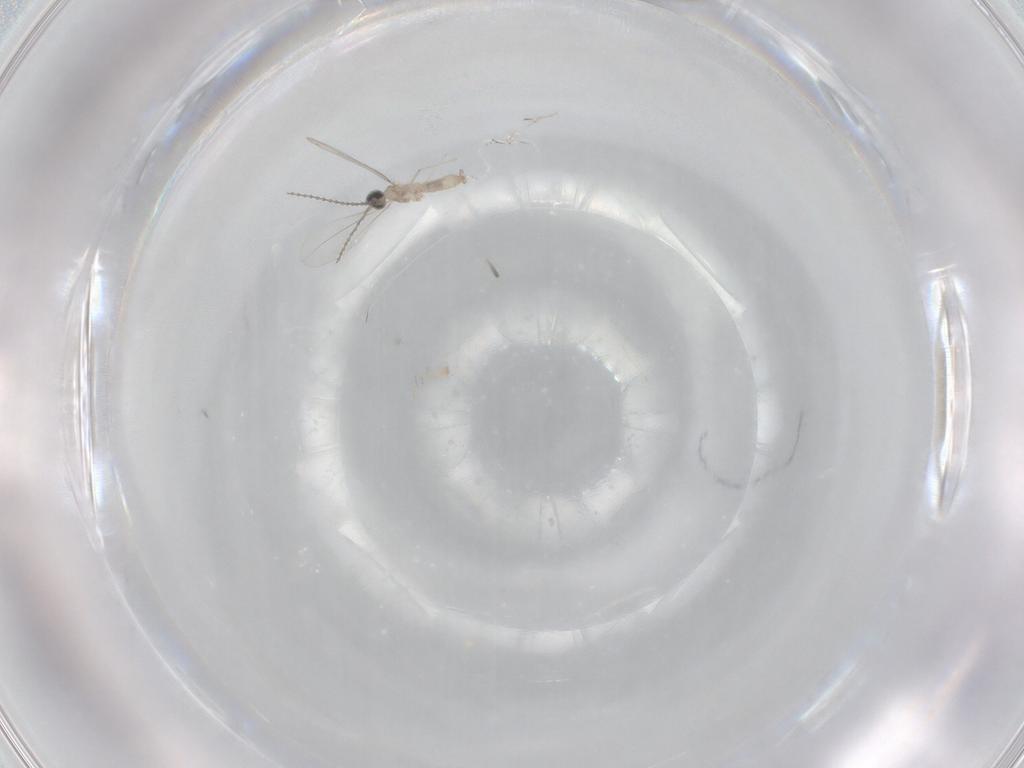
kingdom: Animalia
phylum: Arthropoda
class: Insecta
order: Diptera
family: Cecidomyiidae
